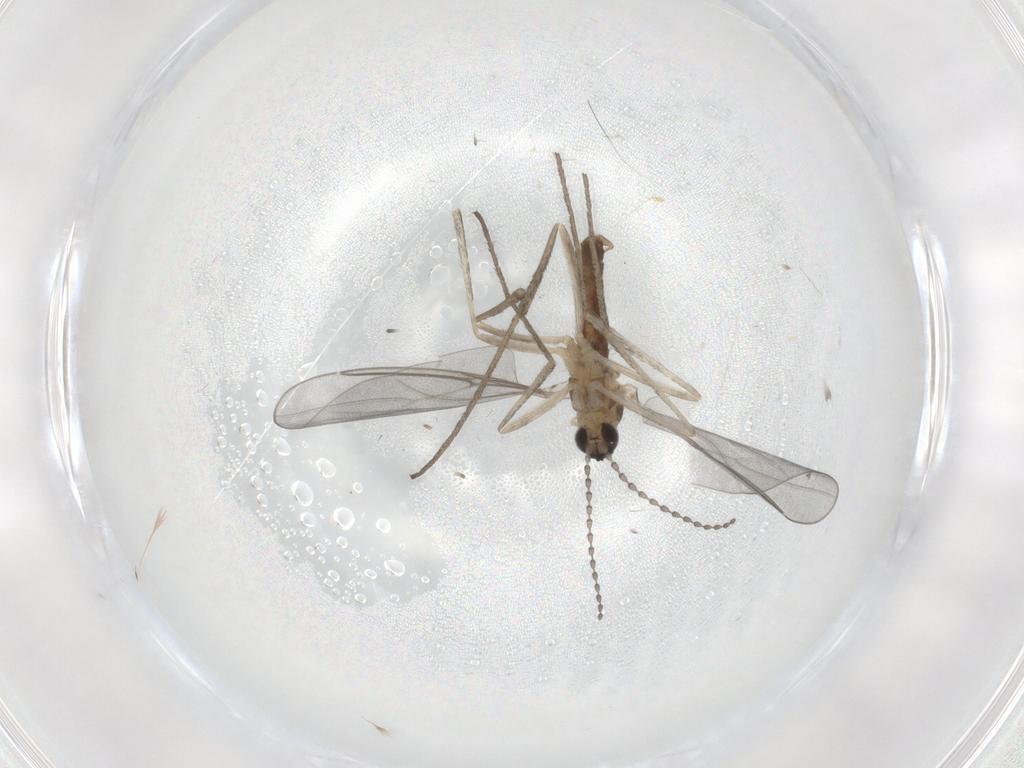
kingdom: Animalia
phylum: Arthropoda
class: Insecta
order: Diptera
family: Cecidomyiidae
